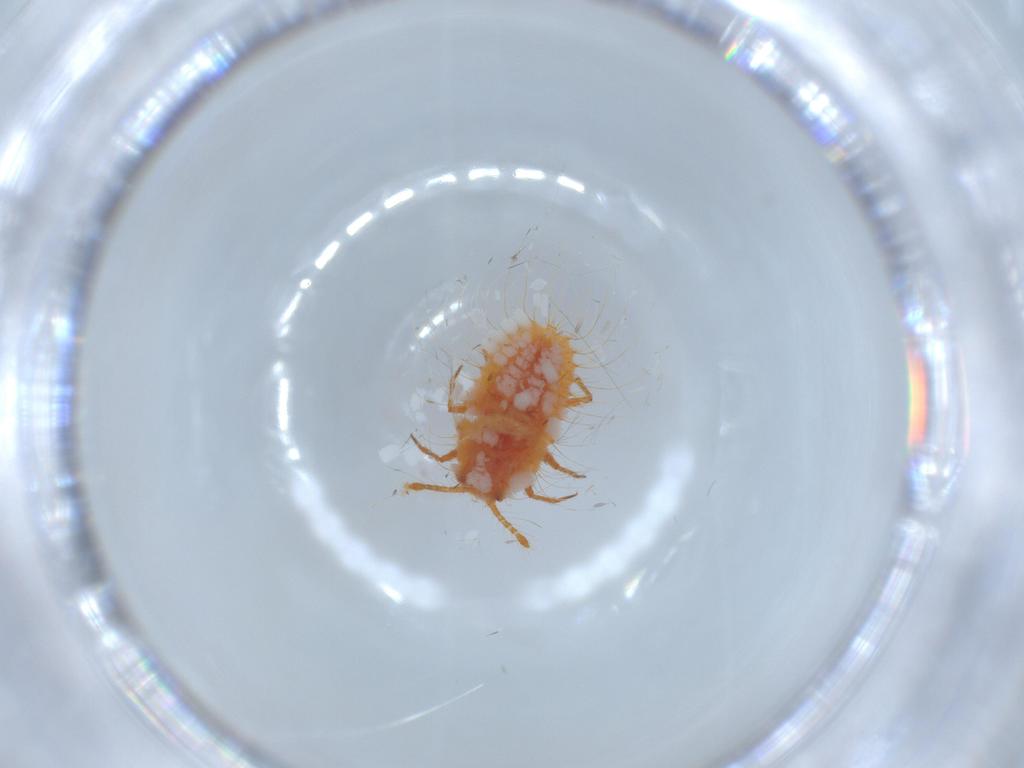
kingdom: Animalia
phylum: Arthropoda
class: Insecta
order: Hemiptera
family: Coccoidea_incertae_sedis
